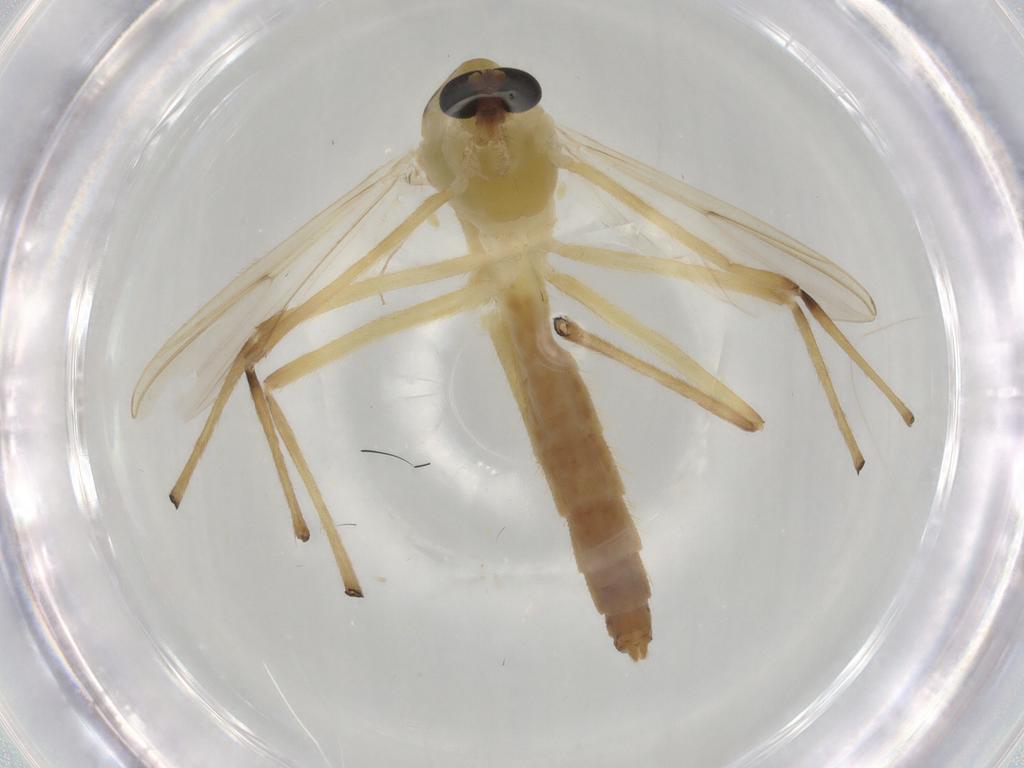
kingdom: Animalia
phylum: Arthropoda
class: Insecta
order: Diptera
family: Chironomidae
